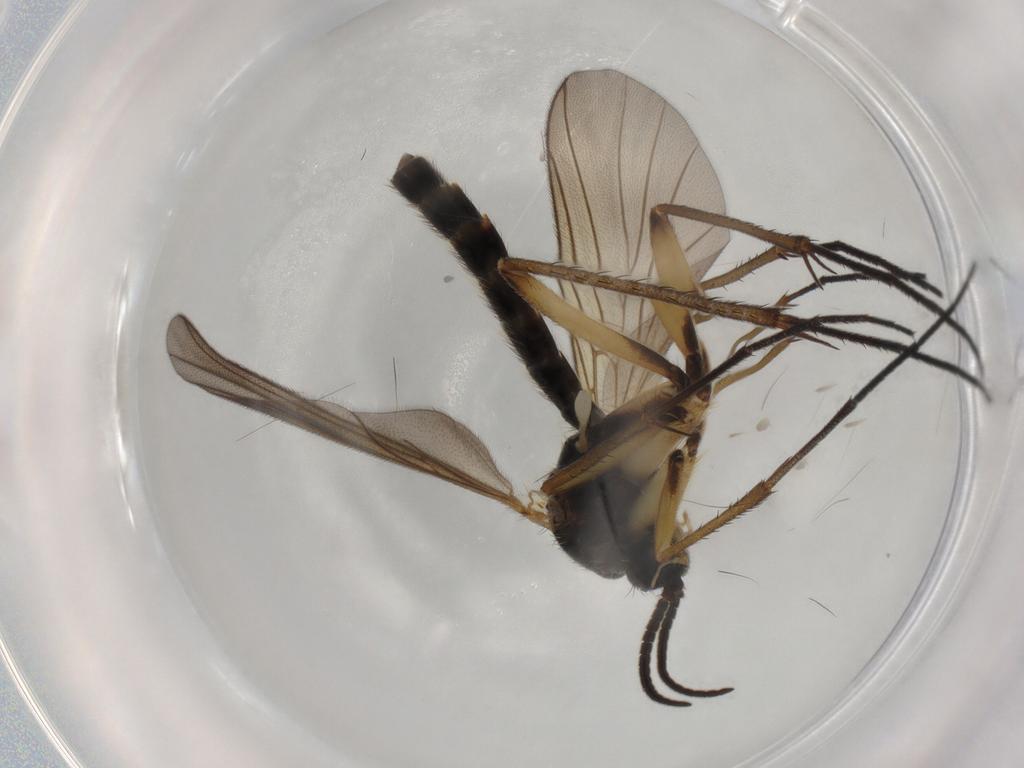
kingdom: Animalia
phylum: Arthropoda
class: Insecta
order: Diptera
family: Mycetophilidae
